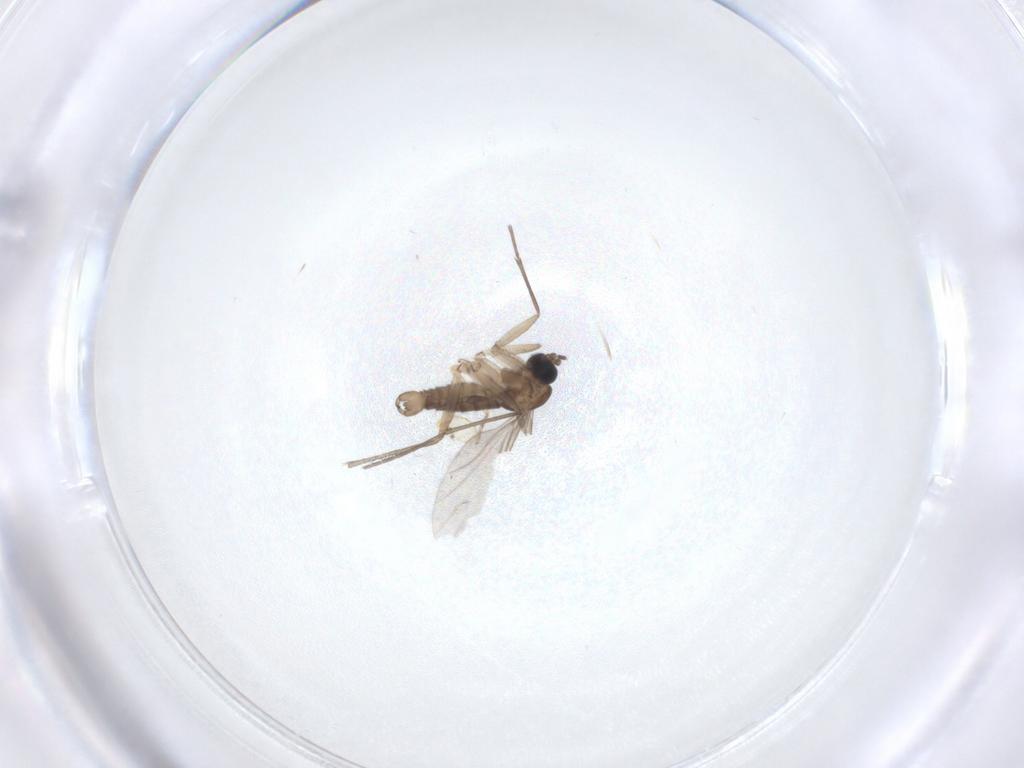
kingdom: Animalia
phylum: Arthropoda
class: Insecta
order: Diptera
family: Sciaridae
